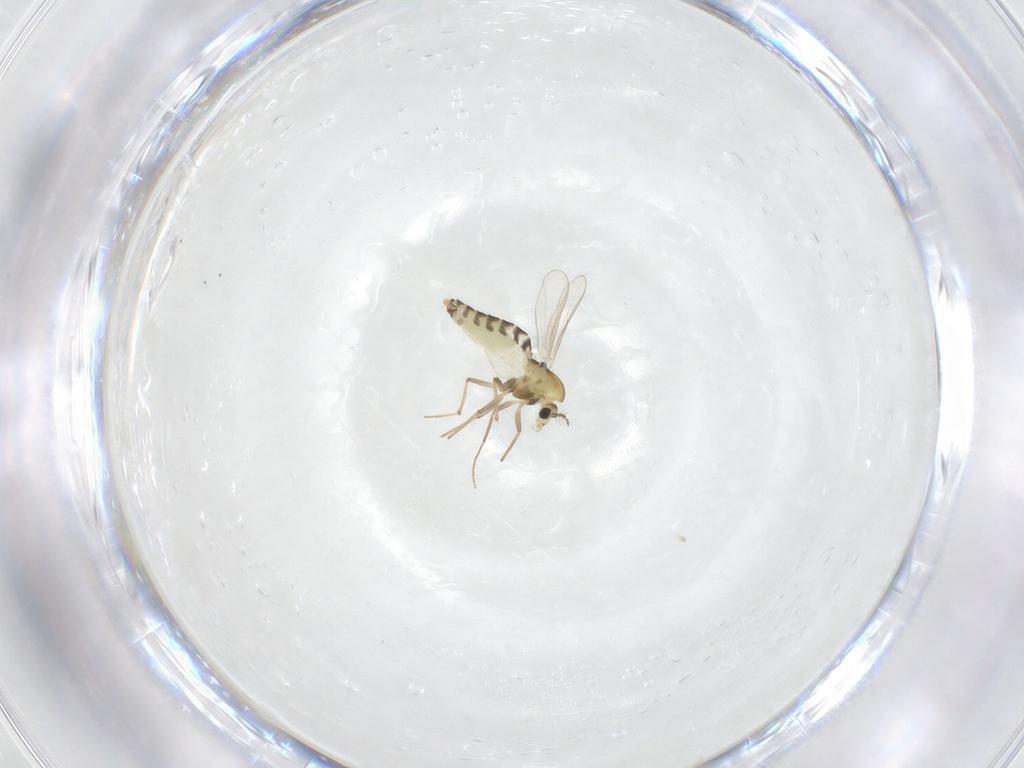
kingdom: Animalia
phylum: Arthropoda
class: Insecta
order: Diptera
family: Chironomidae
